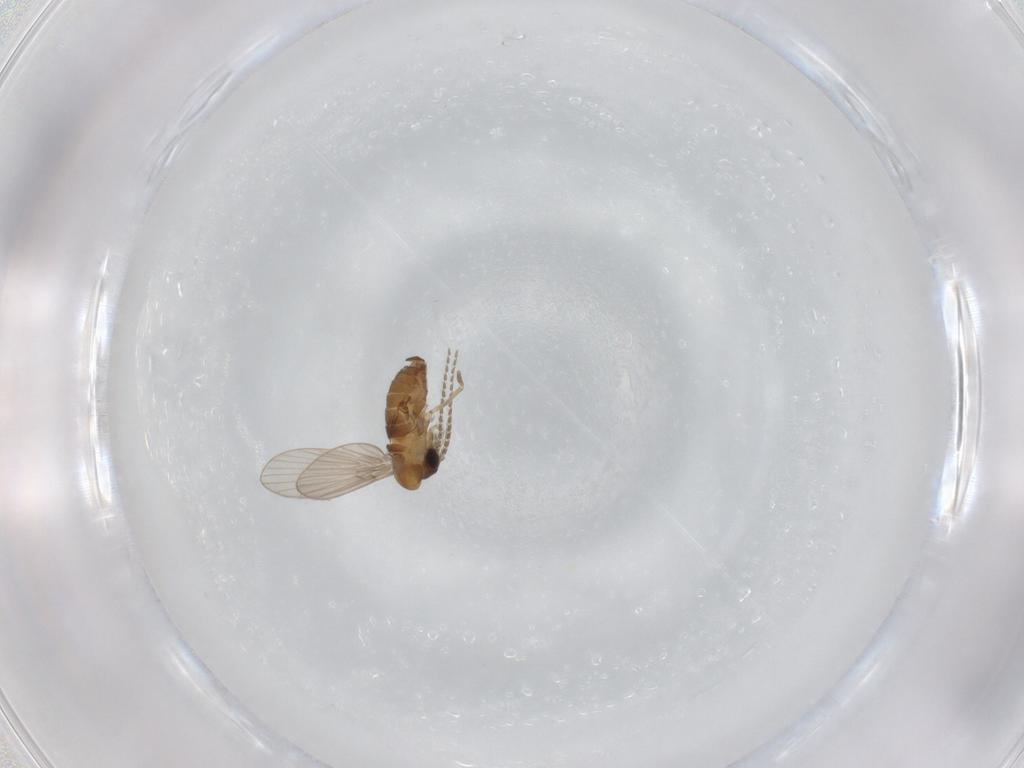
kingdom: Animalia
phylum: Arthropoda
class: Insecta
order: Diptera
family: Dolichopodidae
